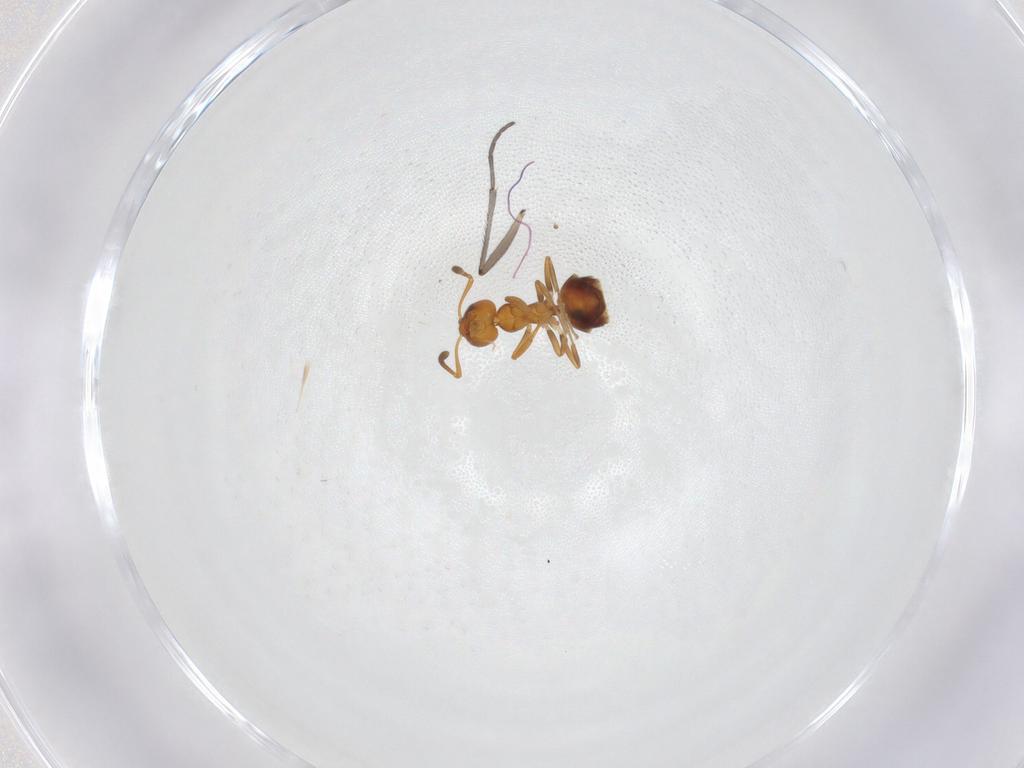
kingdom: Animalia
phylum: Arthropoda
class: Insecta
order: Hymenoptera
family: Formicidae
